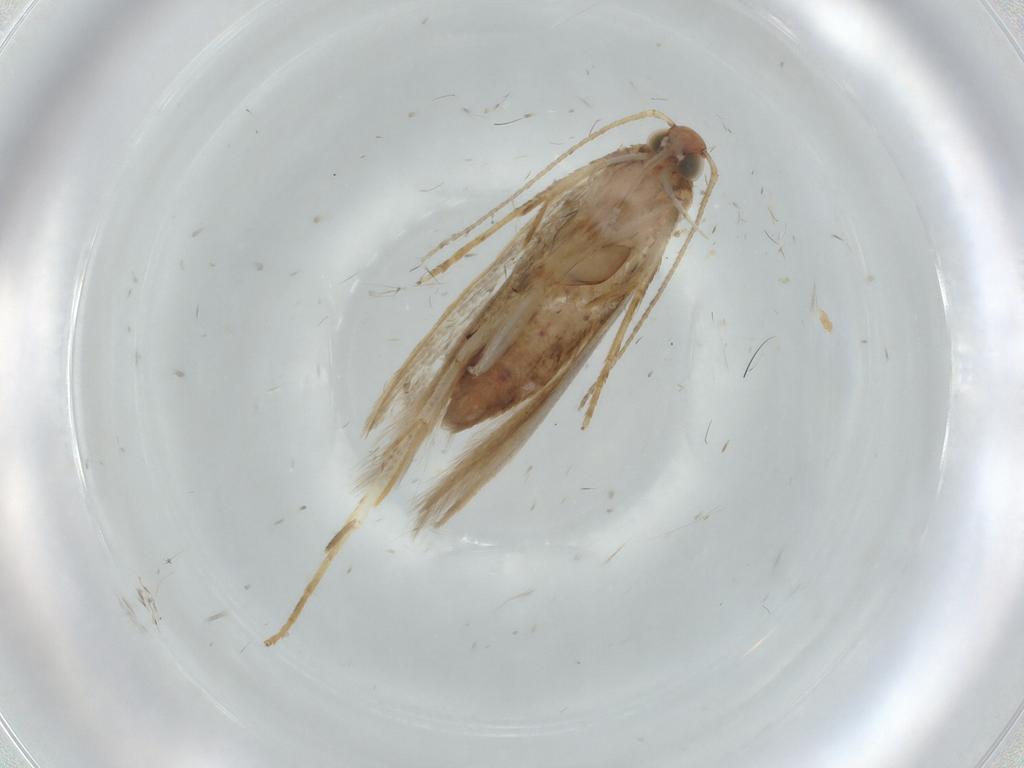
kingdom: Animalia
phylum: Arthropoda
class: Insecta
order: Lepidoptera
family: Gelechiidae
